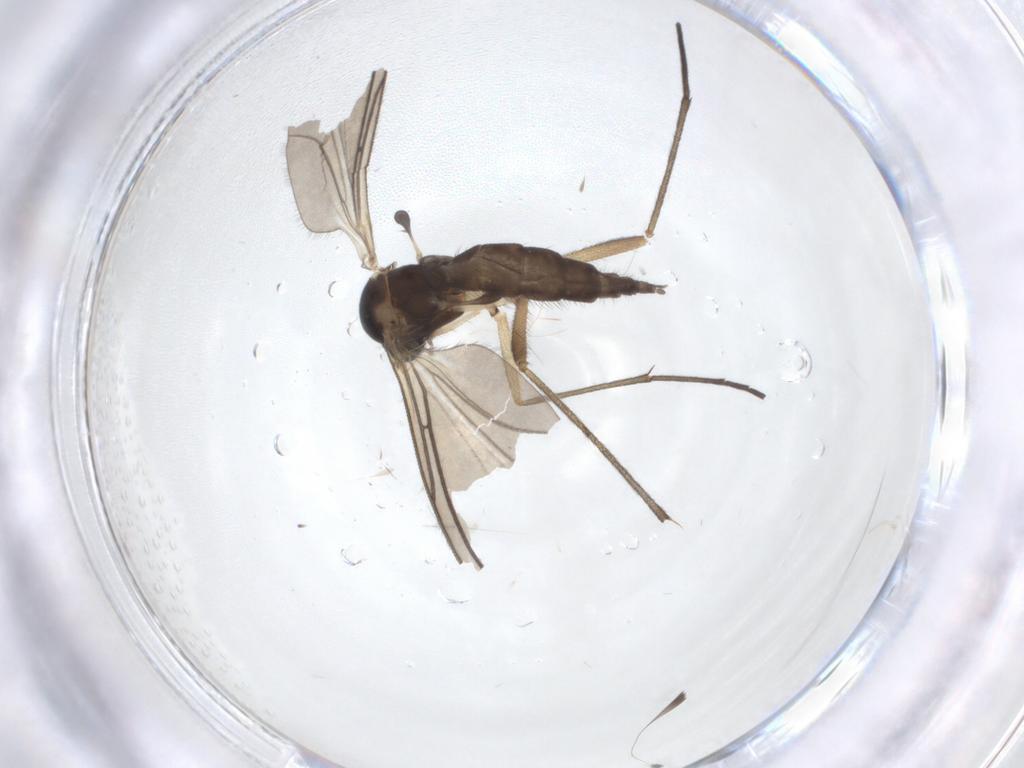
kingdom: Animalia
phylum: Arthropoda
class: Insecta
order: Diptera
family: Sciaridae
